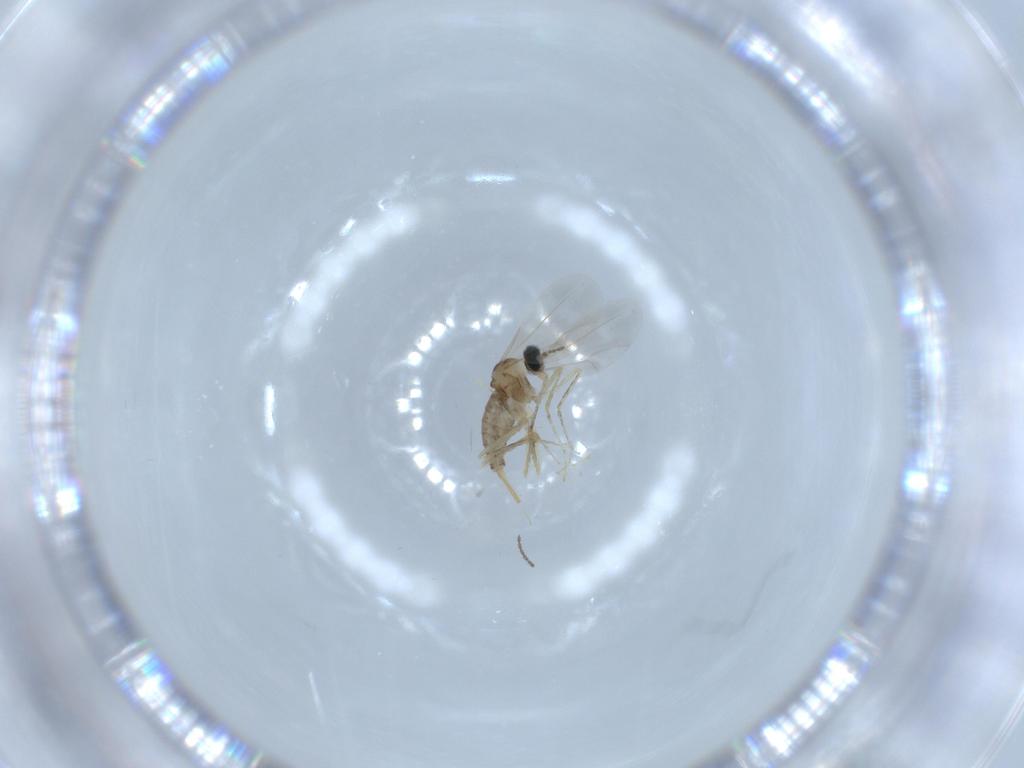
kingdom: Animalia
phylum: Arthropoda
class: Insecta
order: Diptera
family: Cecidomyiidae
